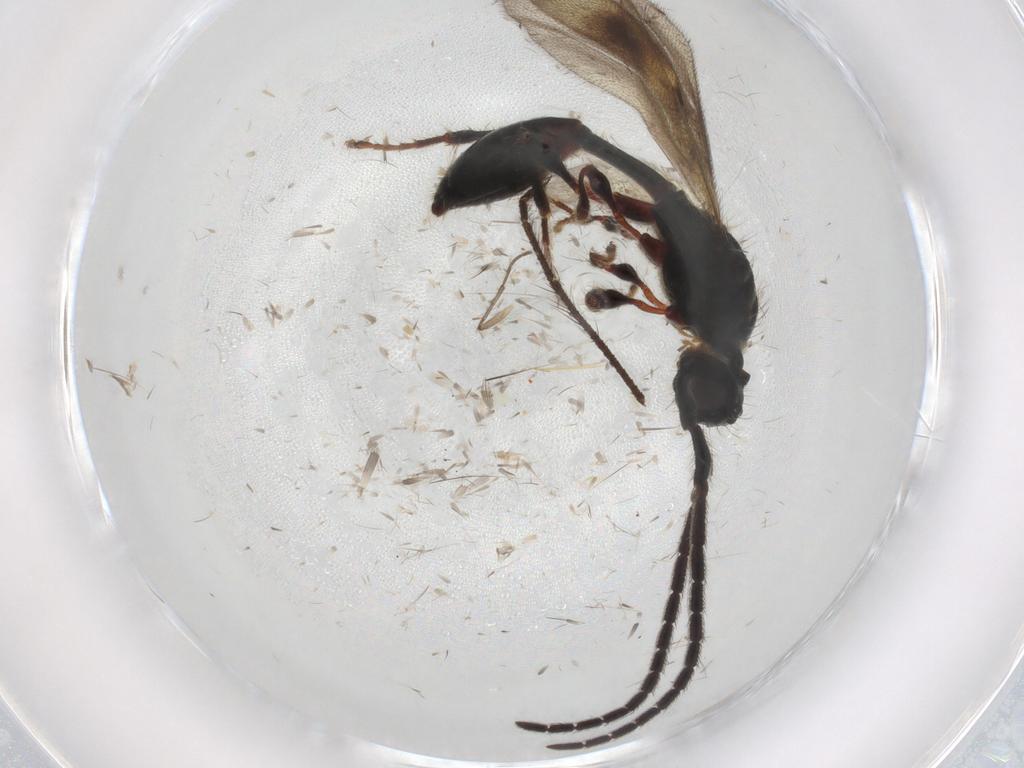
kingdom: Animalia
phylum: Arthropoda
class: Insecta
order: Hymenoptera
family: Diapriidae
